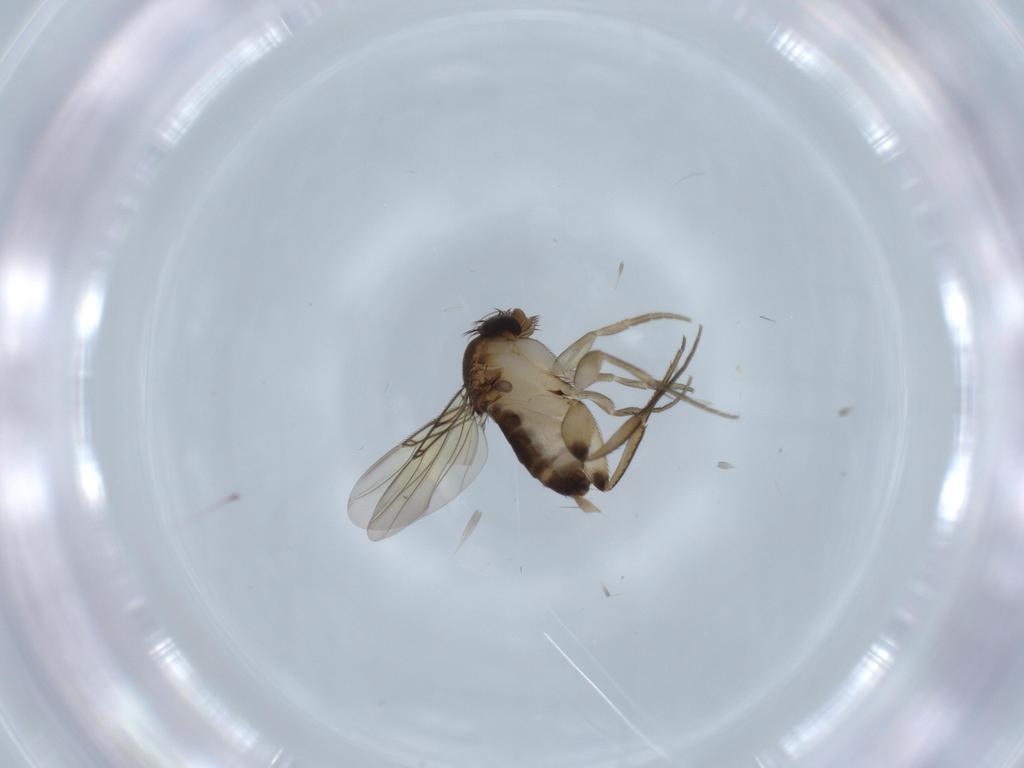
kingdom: Animalia
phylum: Arthropoda
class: Insecta
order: Diptera
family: Phoridae
